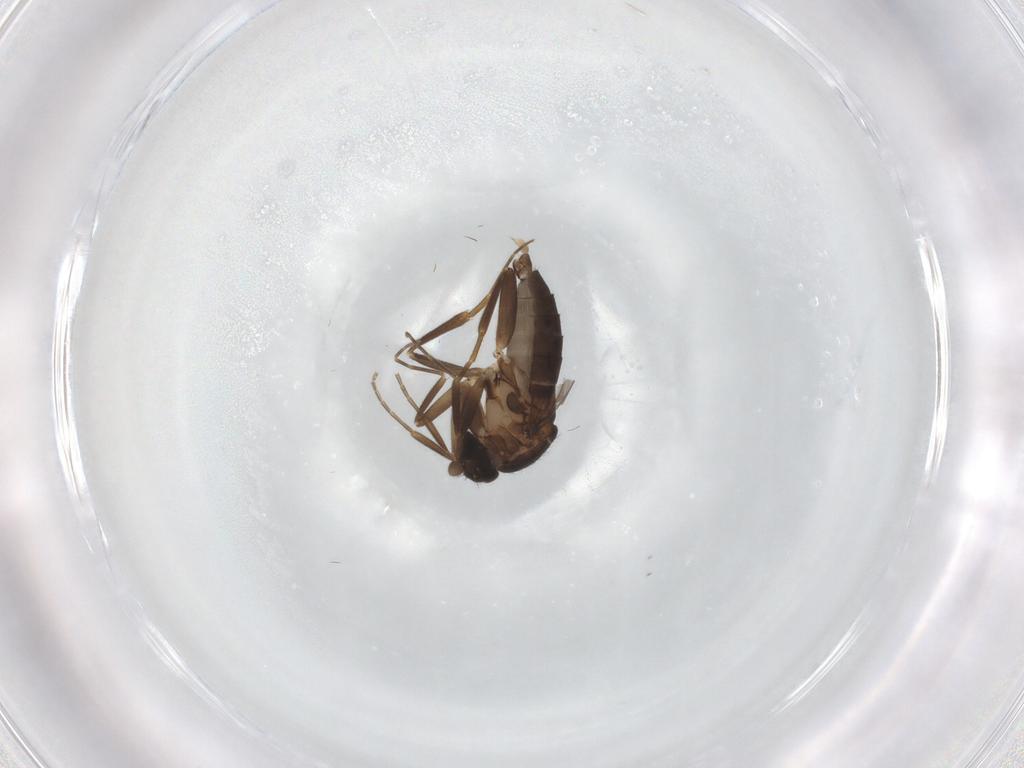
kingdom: Animalia
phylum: Arthropoda
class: Insecta
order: Diptera
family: Sciaridae
